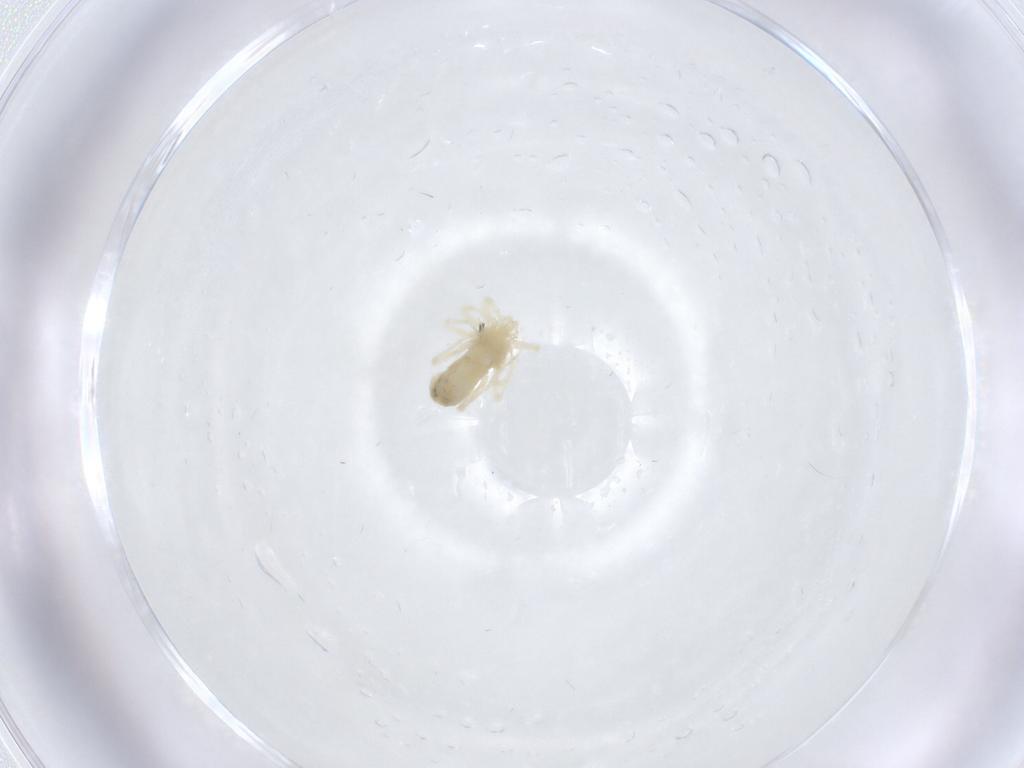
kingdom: Animalia
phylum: Arthropoda
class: Arachnida
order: Trombidiformes
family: Anystidae
